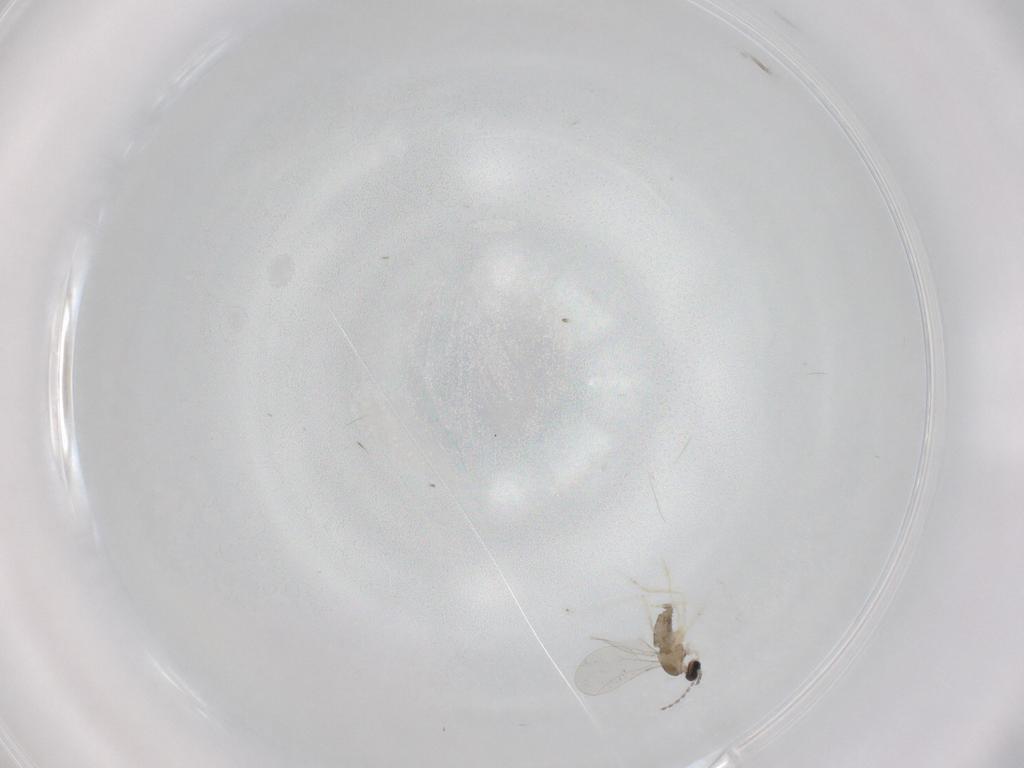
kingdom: Animalia
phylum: Arthropoda
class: Insecta
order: Diptera
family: Cecidomyiidae
